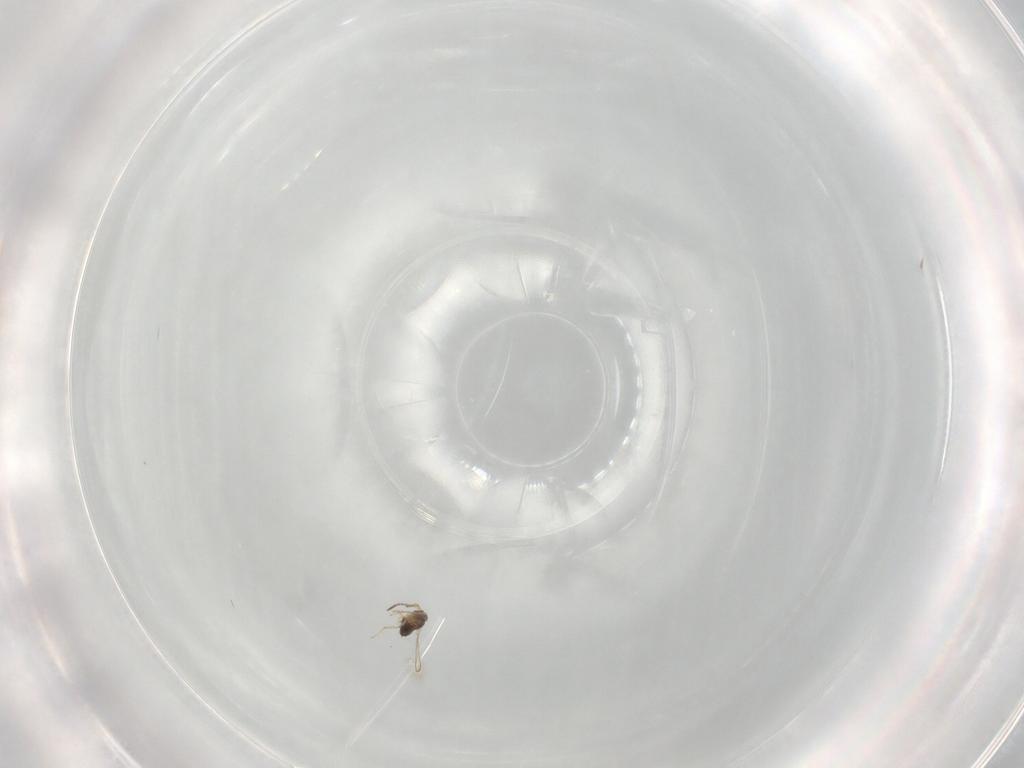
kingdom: Animalia
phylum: Arthropoda
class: Insecta
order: Hymenoptera
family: Apidae
